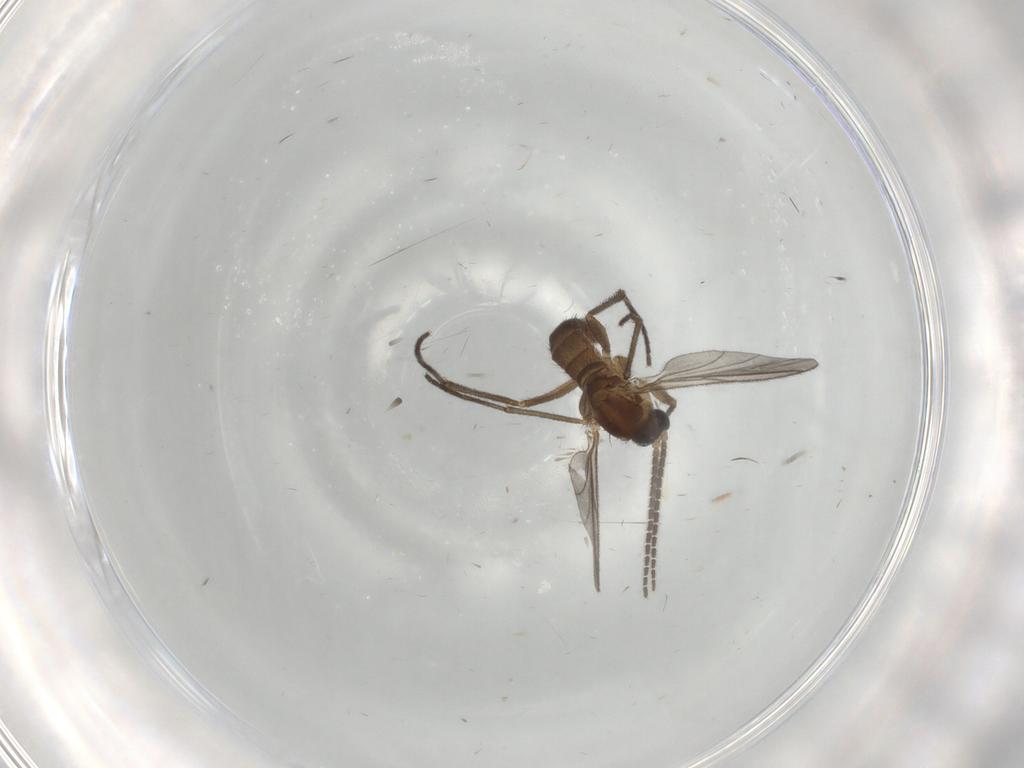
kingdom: Animalia
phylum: Arthropoda
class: Insecta
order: Diptera
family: Sciaridae
